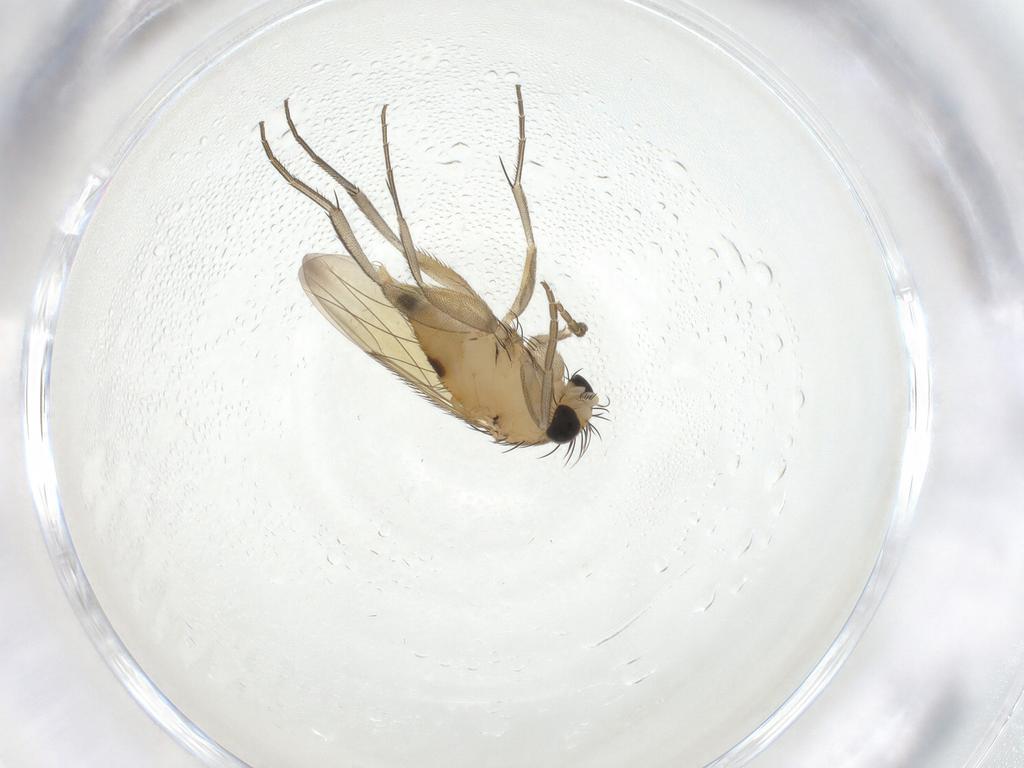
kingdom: Animalia
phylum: Arthropoda
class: Insecta
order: Diptera
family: Phoridae
